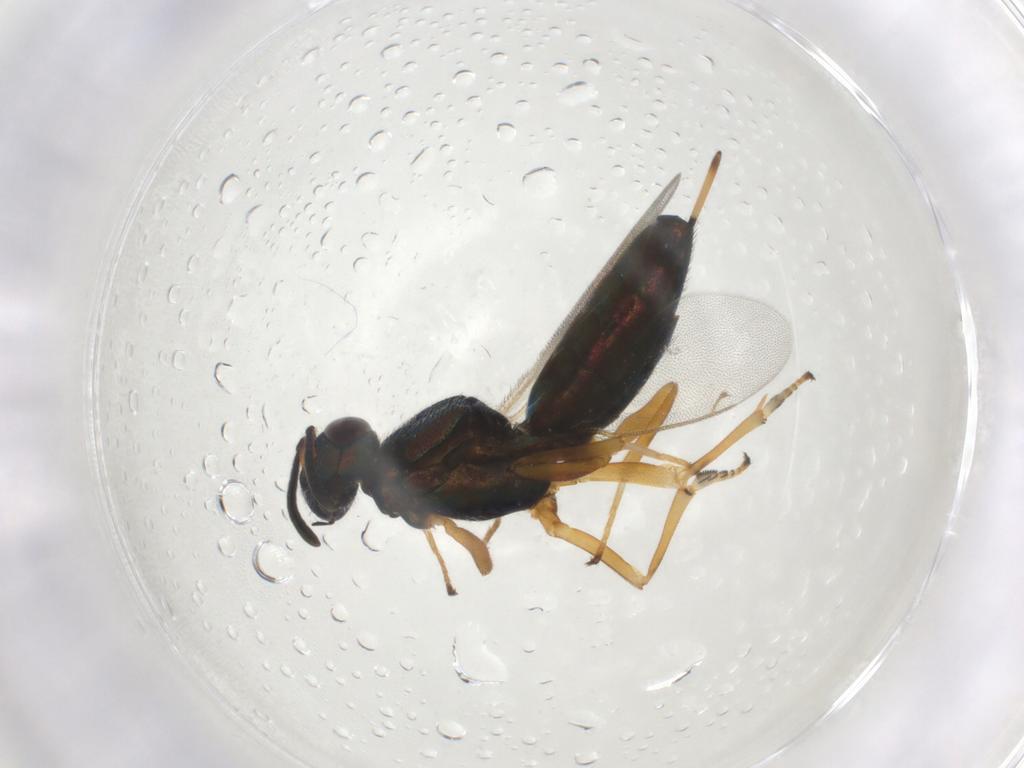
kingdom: Animalia
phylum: Arthropoda
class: Insecta
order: Hymenoptera
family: Eupelmidae
